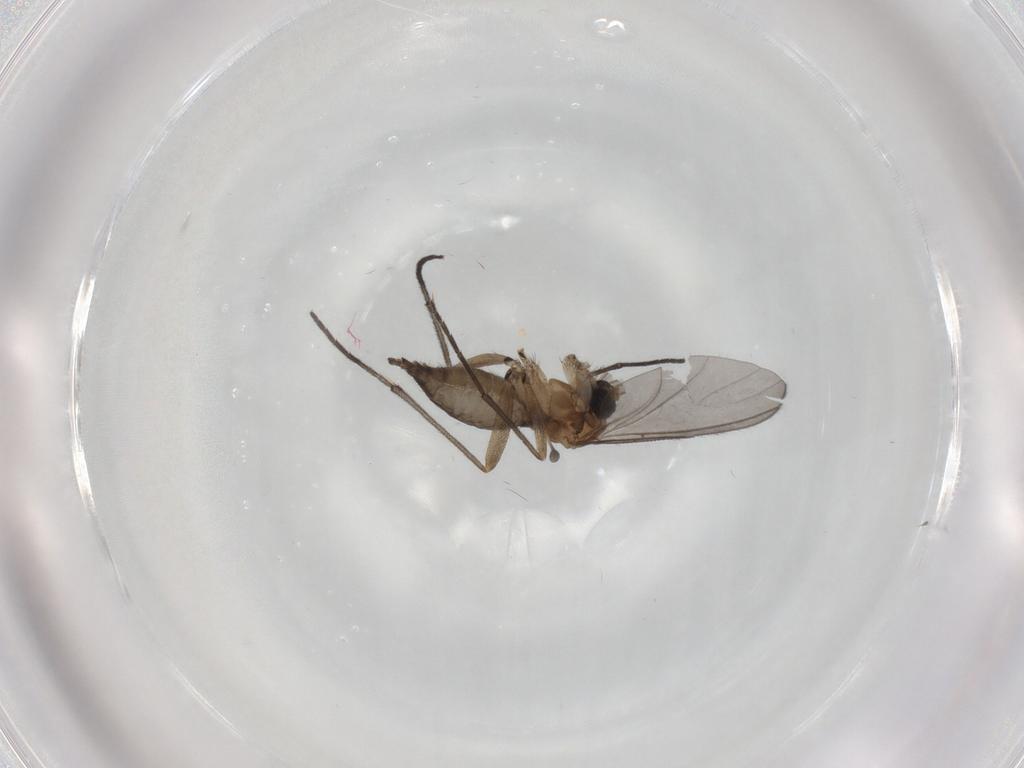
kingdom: Animalia
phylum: Arthropoda
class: Insecta
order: Diptera
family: Sciaridae
